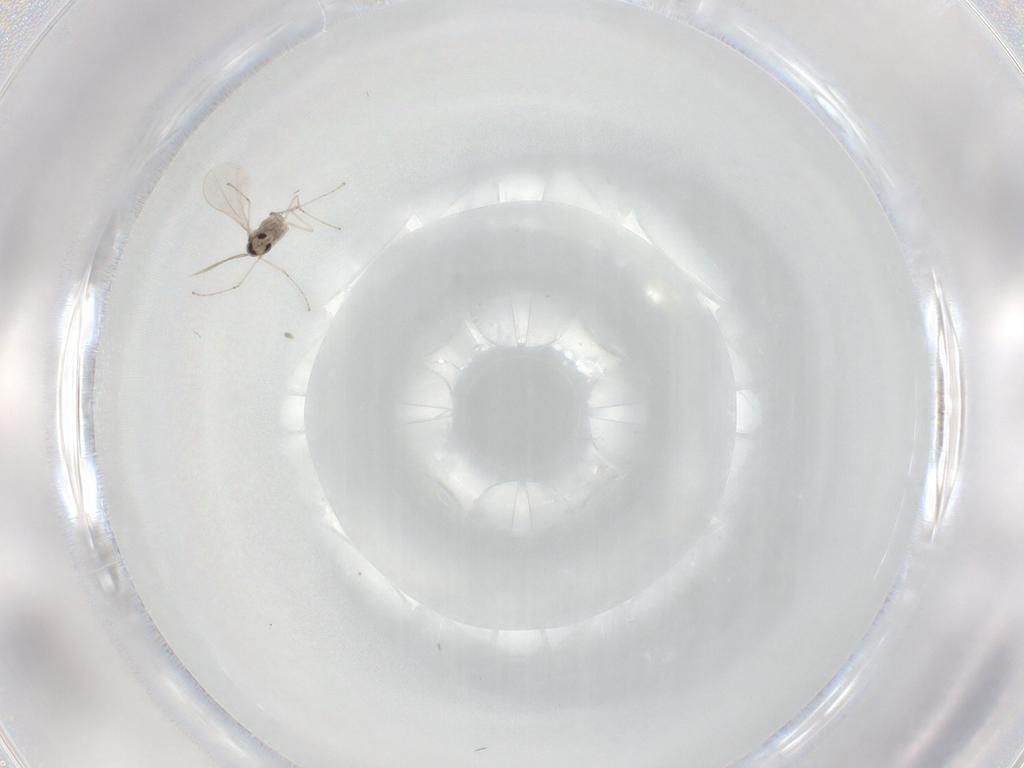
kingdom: Animalia
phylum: Arthropoda
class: Insecta
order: Diptera
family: Cecidomyiidae
